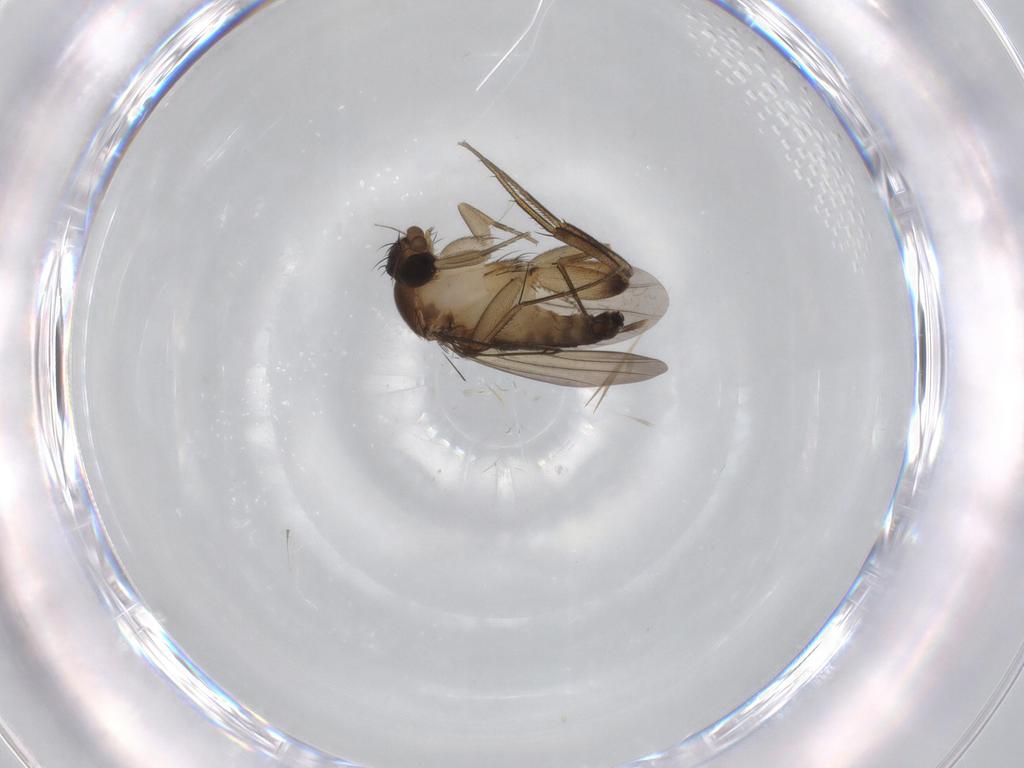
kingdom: Animalia
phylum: Arthropoda
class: Insecta
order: Diptera
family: Phoridae
